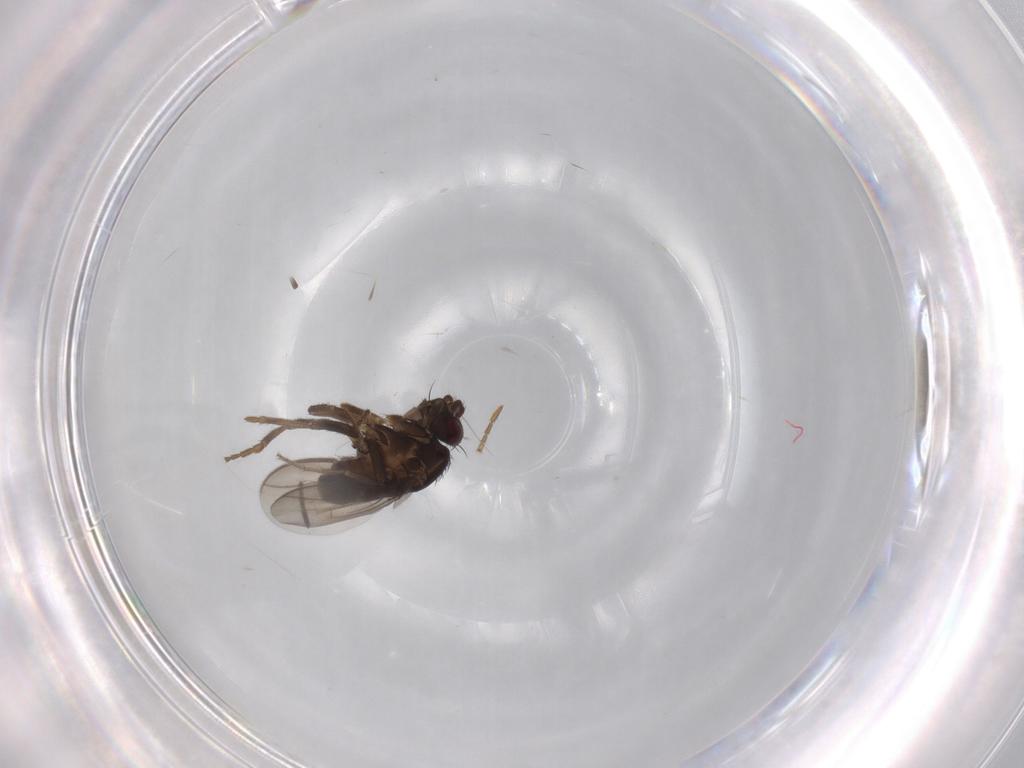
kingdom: Animalia
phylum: Arthropoda
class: Insecta
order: Diptera
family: Sphaeroceridae
